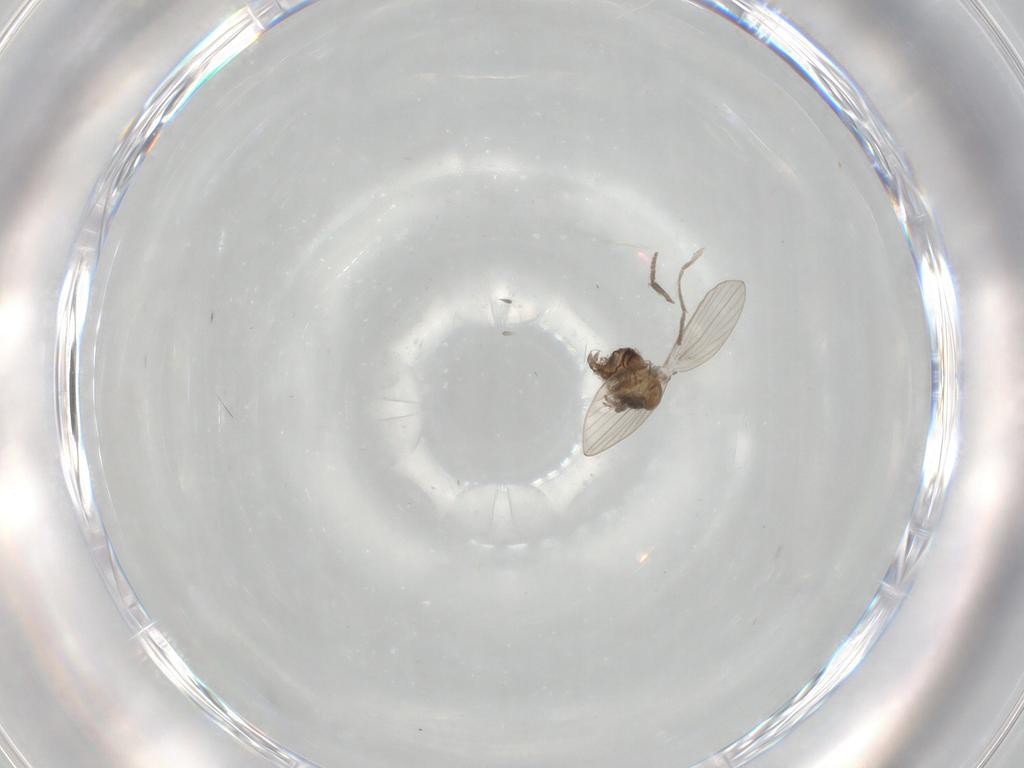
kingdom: Animalia
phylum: Arthropoda
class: Insecta
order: Diptera
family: Psychodidae
